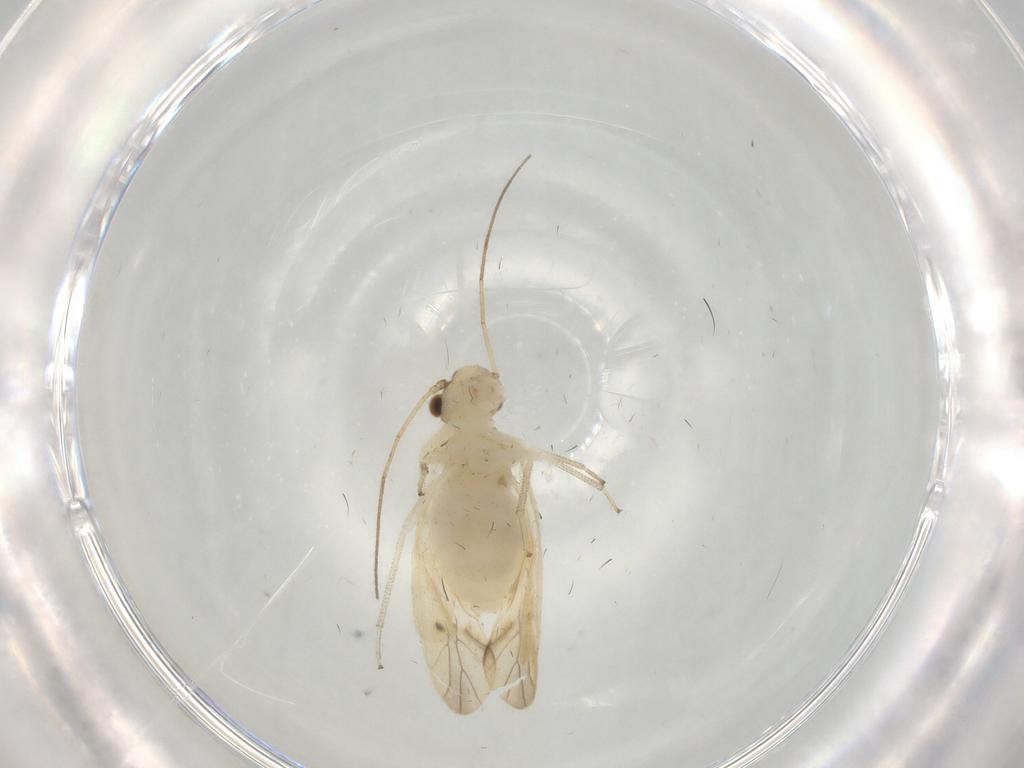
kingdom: Animalia
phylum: Arthropoda
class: Insecta
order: Psocodea
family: Caeciliusidae
